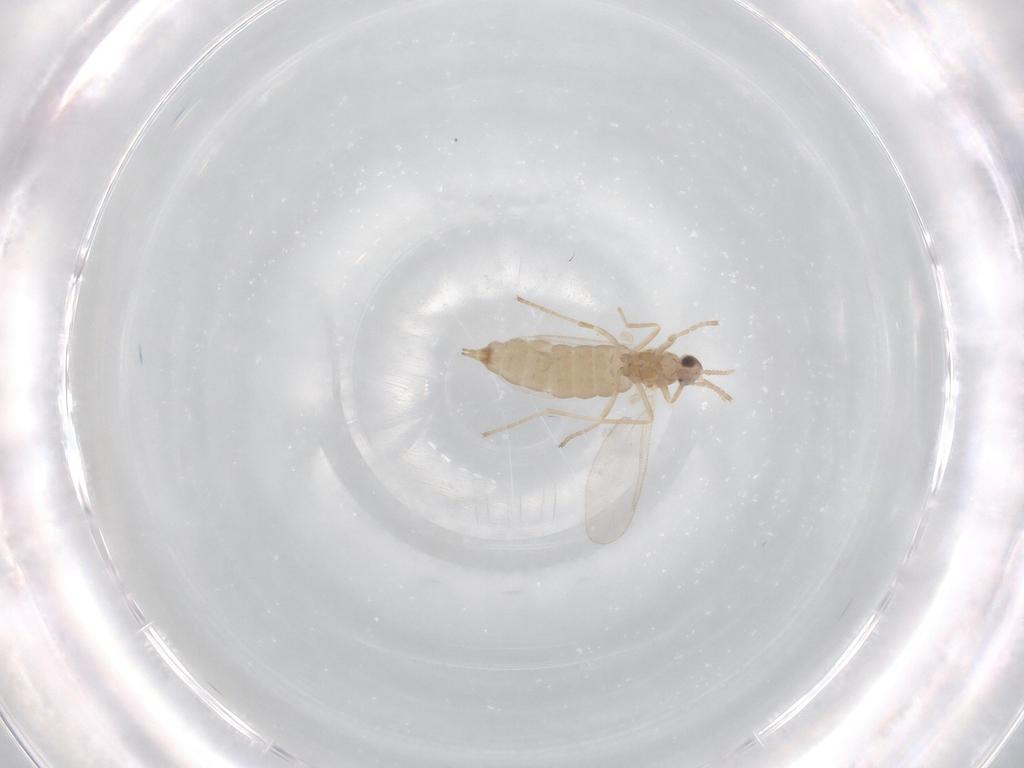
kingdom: Animalia
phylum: Arthropoda
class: Insecta
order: Diptera
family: Cecidomyiidae
